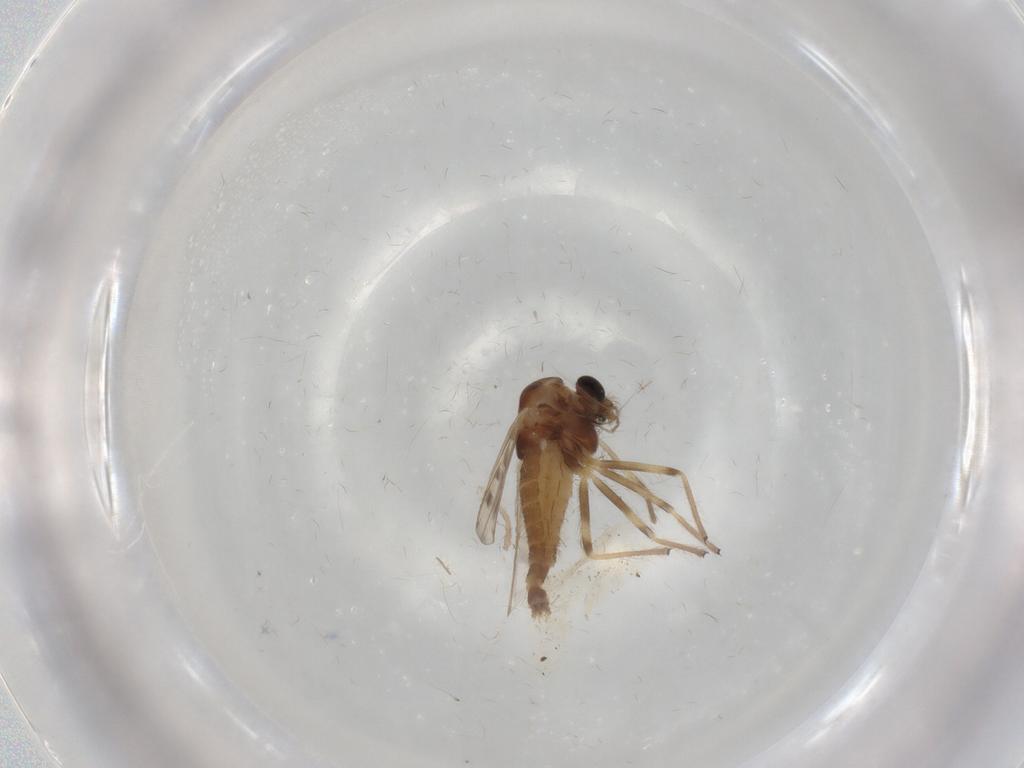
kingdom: Animalia
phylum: Arthropoda
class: Insecta
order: Diptera
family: Chironomidae
